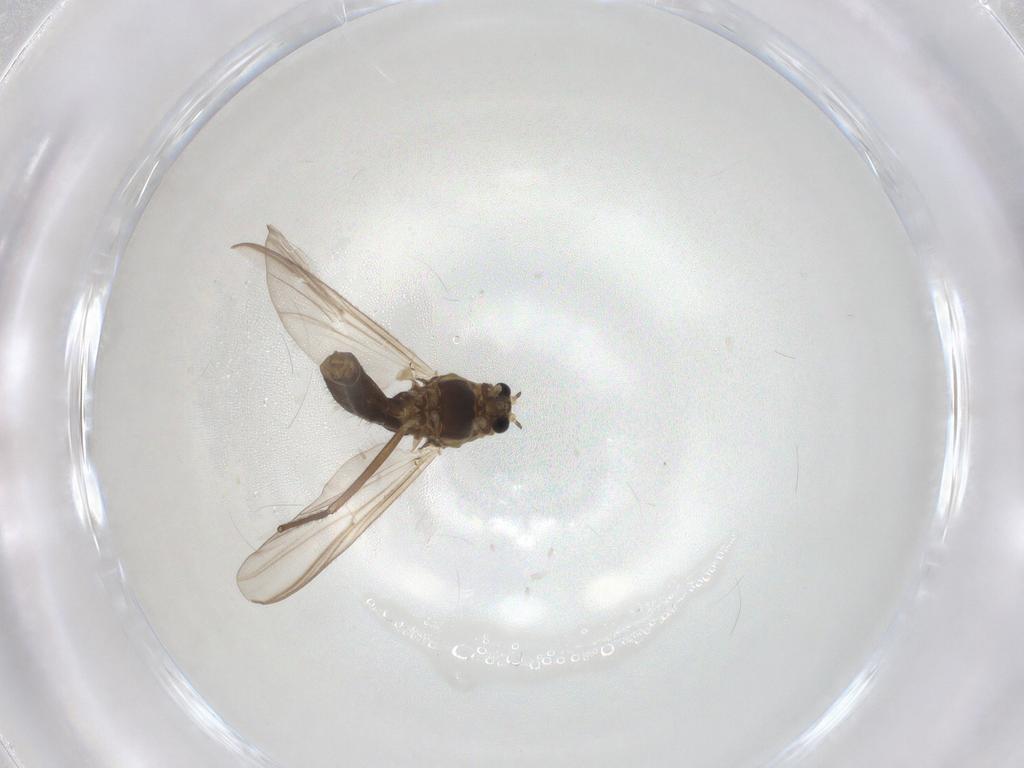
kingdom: Animalia
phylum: Arthropoda
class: Insecta
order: Diptera
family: Chironomidae
